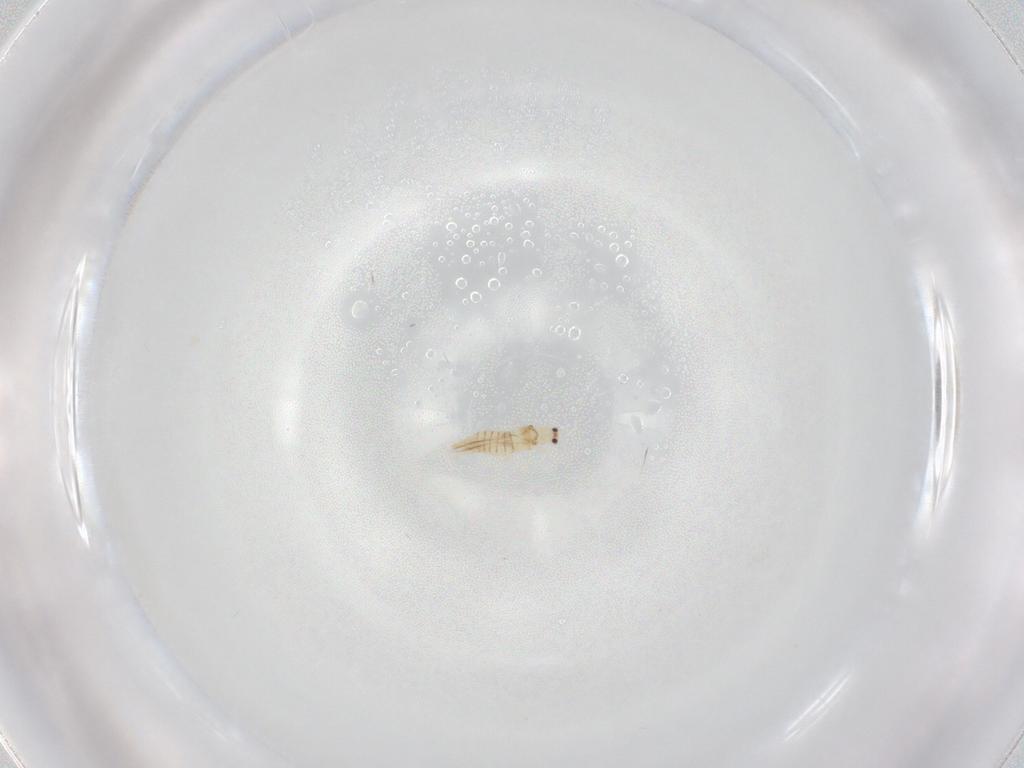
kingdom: Animalia
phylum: Arthropoda
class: Insecta
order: Thysanoptera
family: Thripidae
